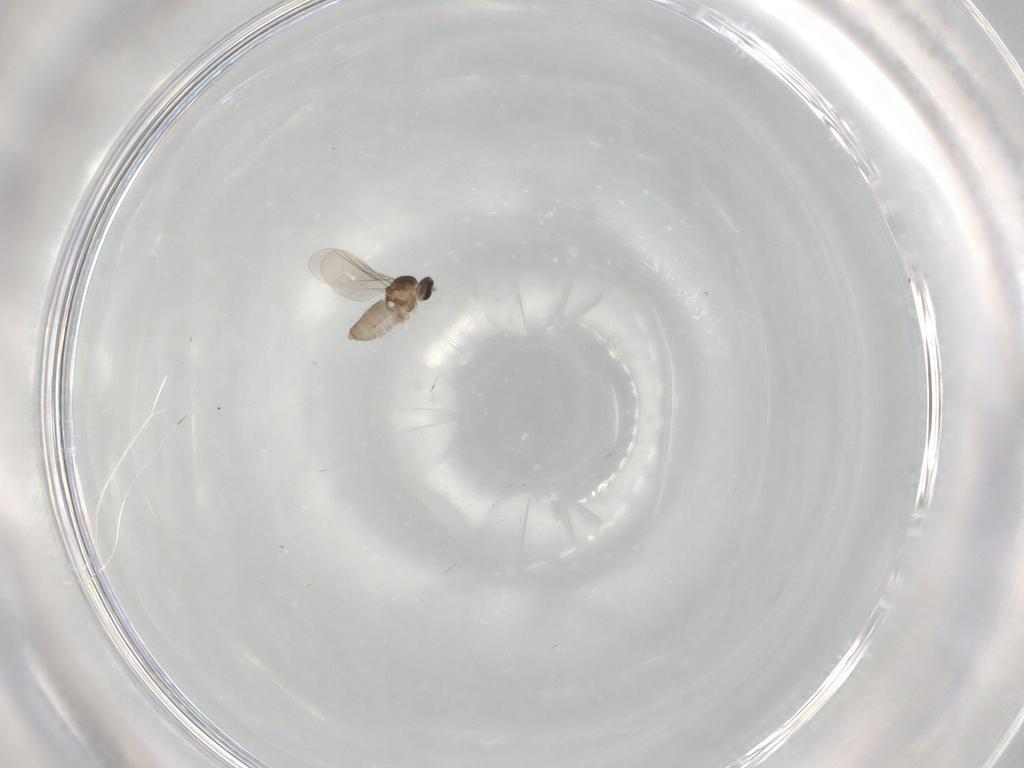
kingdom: Animalia
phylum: Arthropoda
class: Insecta
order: Diptera
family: Cecidomyiidae
